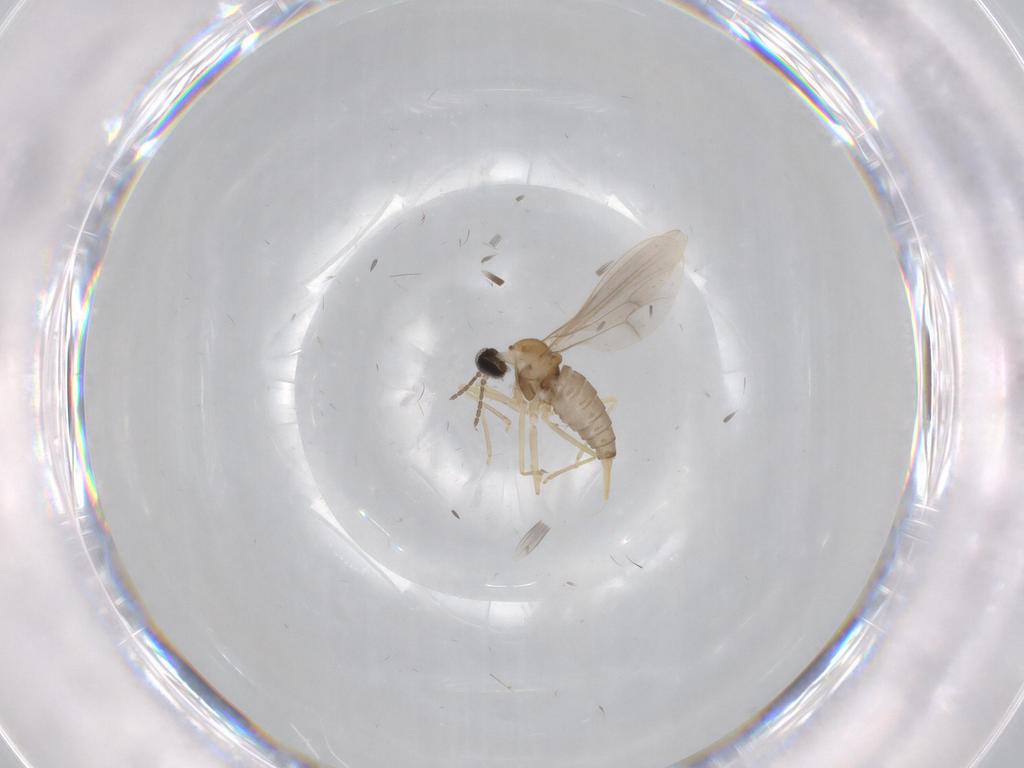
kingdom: Animalia
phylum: Arthropoda
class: Insecta
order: Diptera
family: Cecidomyiidae
